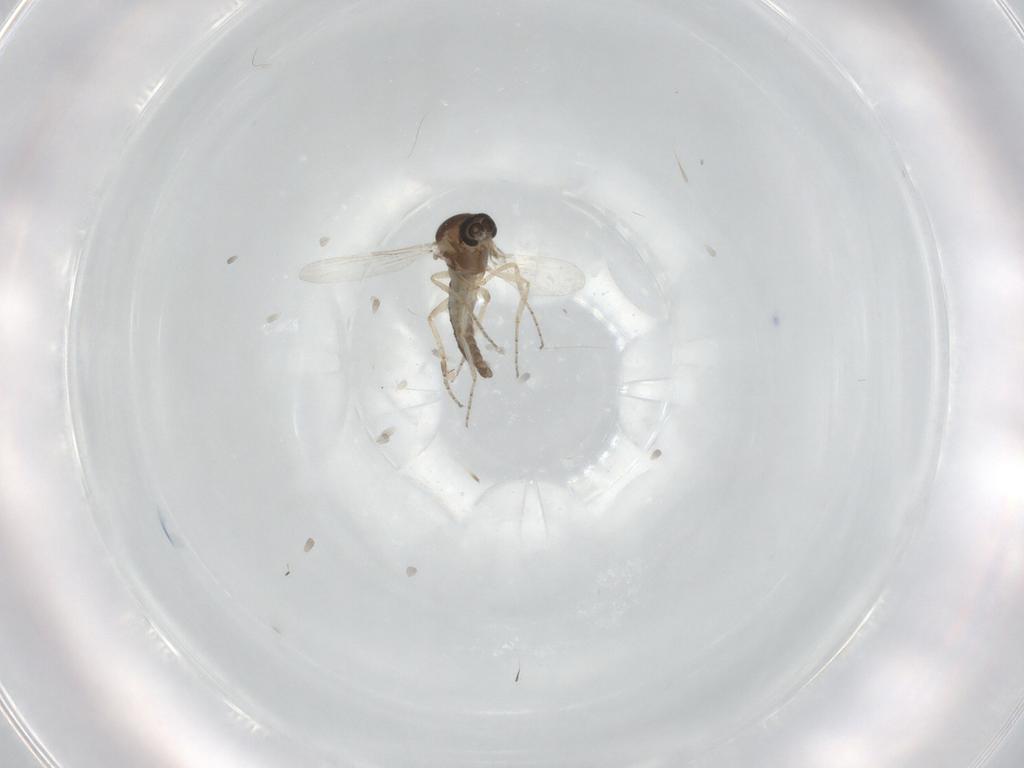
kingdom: Animalia
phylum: Arthropoda
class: Insecta
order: Diptera
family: Ceratopogonidae
